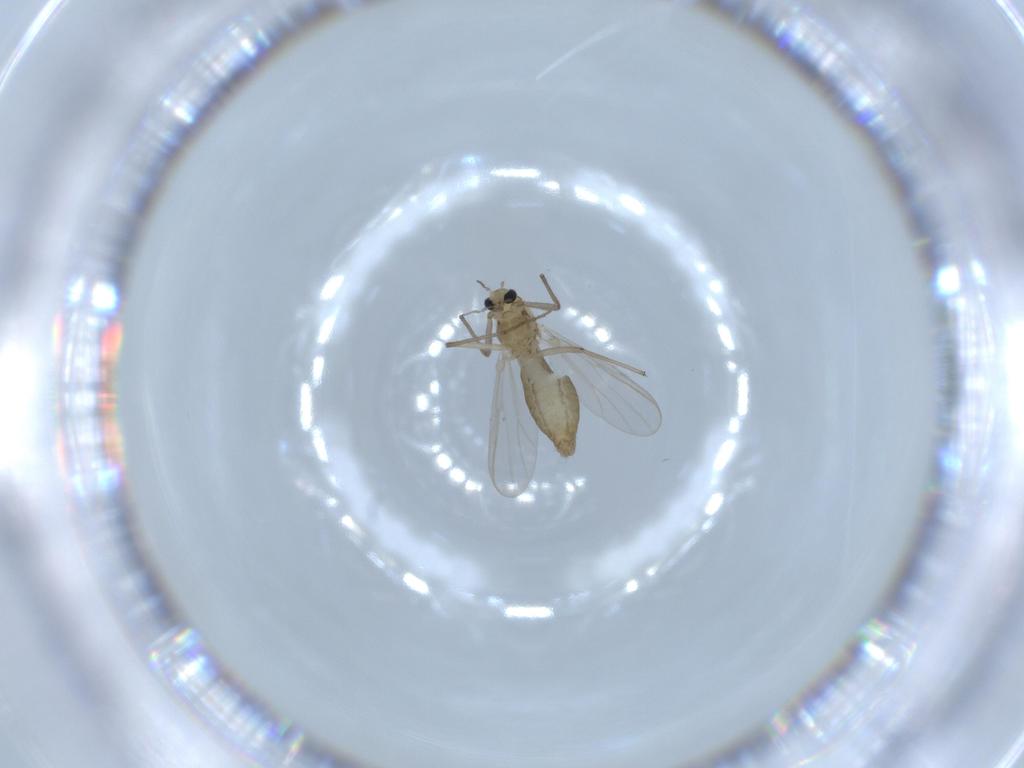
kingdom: Animalia
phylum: Arthropoda
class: Insecta
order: Diptera
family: Chironomidae
